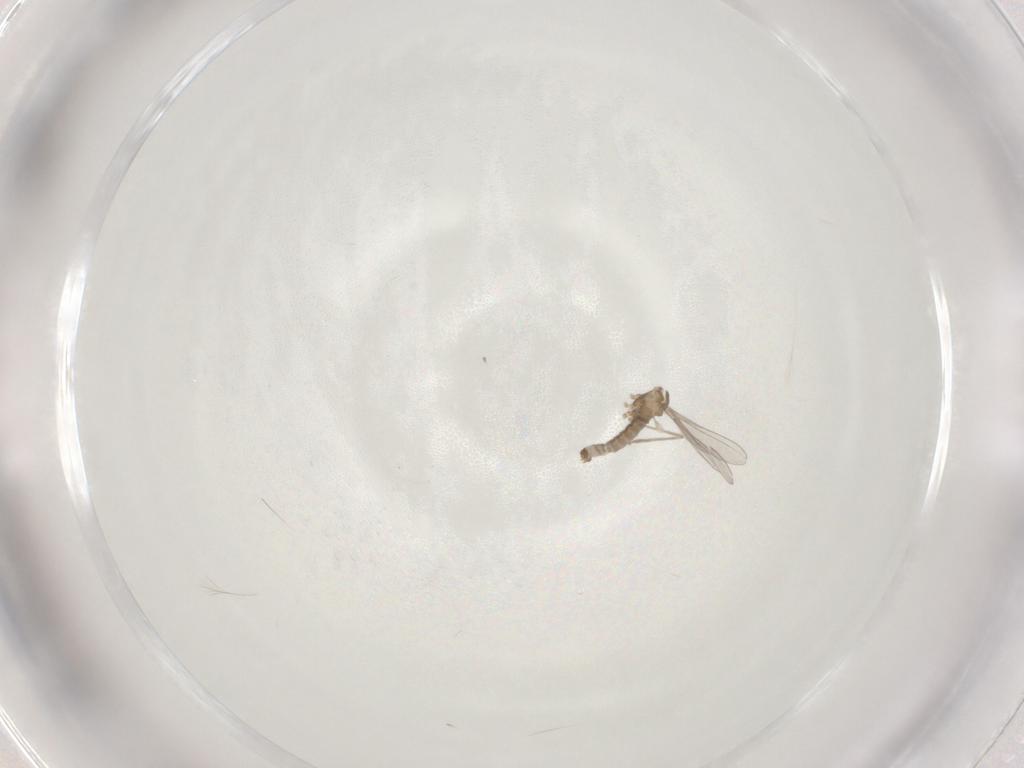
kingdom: Animalia
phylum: Arthropoda
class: Insecta
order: Diptera
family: Cecidomyiidae
